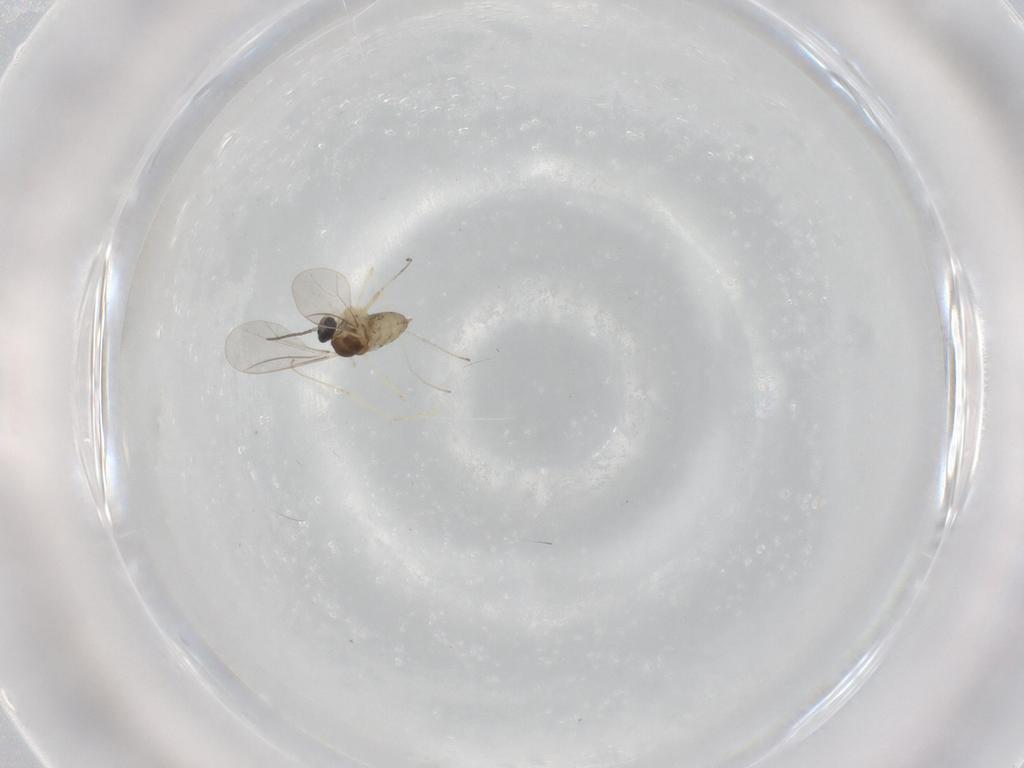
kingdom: Animalia
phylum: Arthropoda
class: Insecta
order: Diptera
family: Cecidomyiidae
